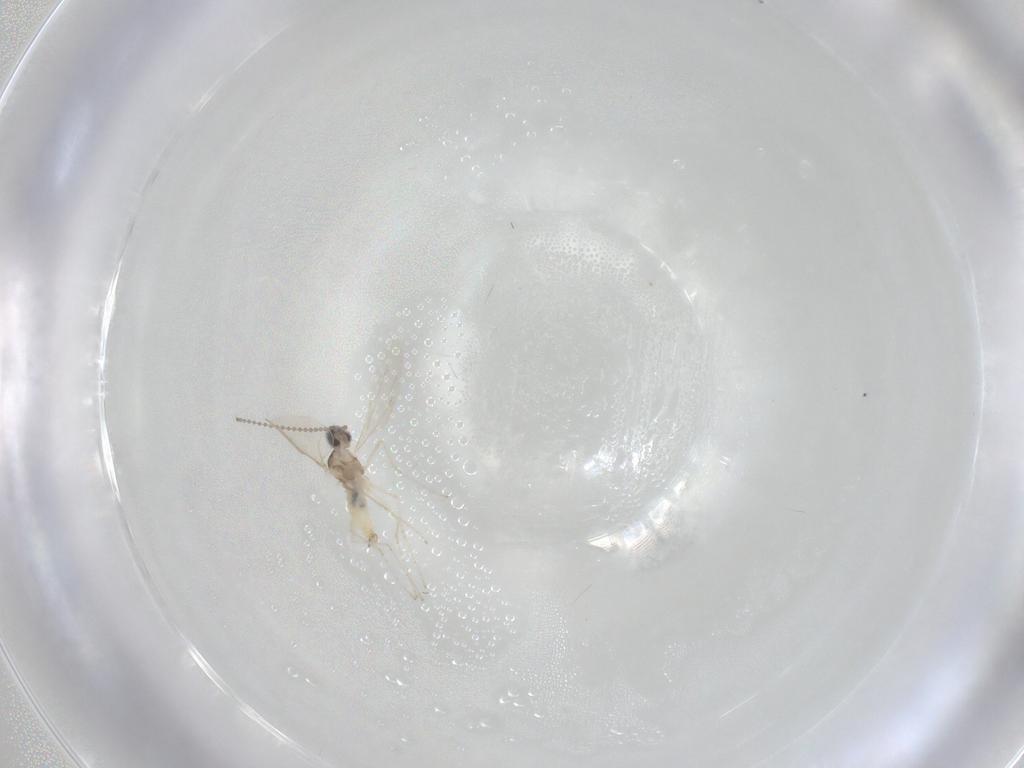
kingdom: Animalia
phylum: Arthropoda
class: Insecta
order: Diptera
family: Cecidomyiidae
